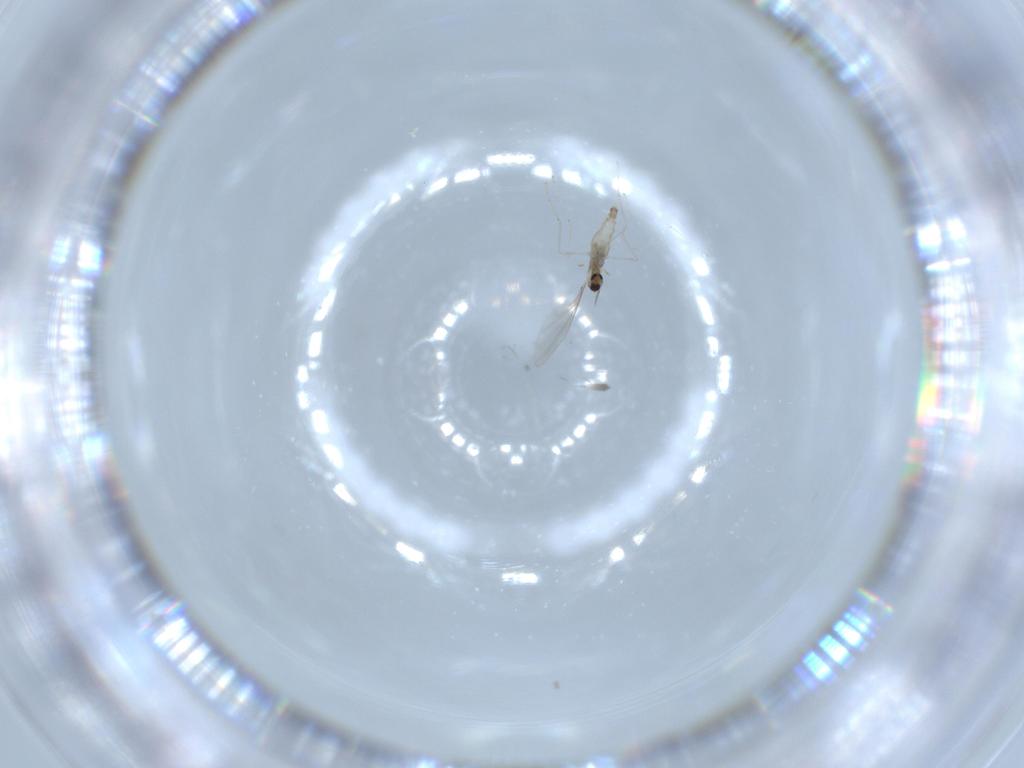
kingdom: Animalia
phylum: Arthropoda
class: Insecta
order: Diptera
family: Cecidomyiidae
